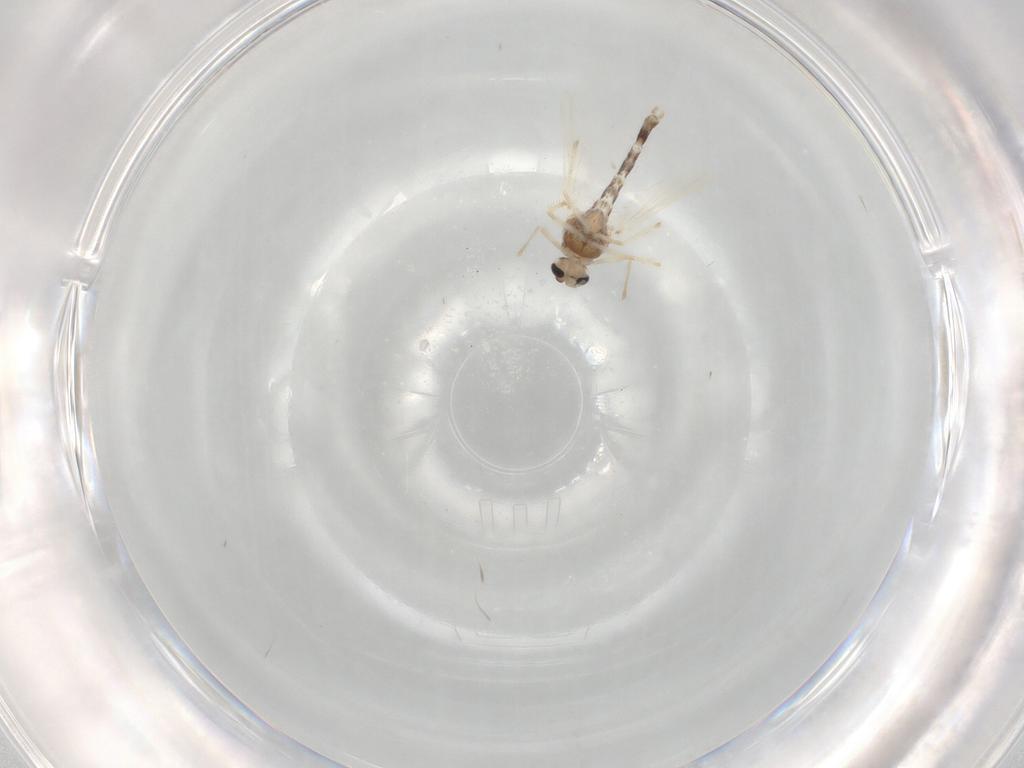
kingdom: Animalia
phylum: Arthropoda
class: Insecta
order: Diptera
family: Chironomidae
